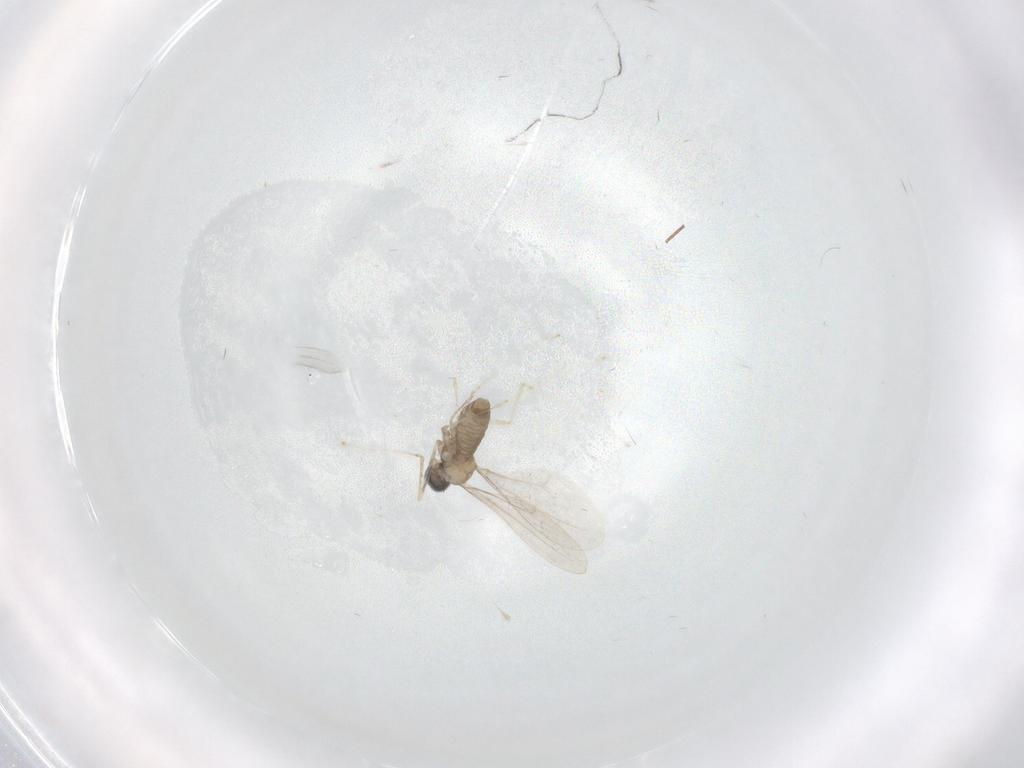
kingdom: Animalia
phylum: Arthropoda
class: Insecta
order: Diptera
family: Cecidomyiidae
